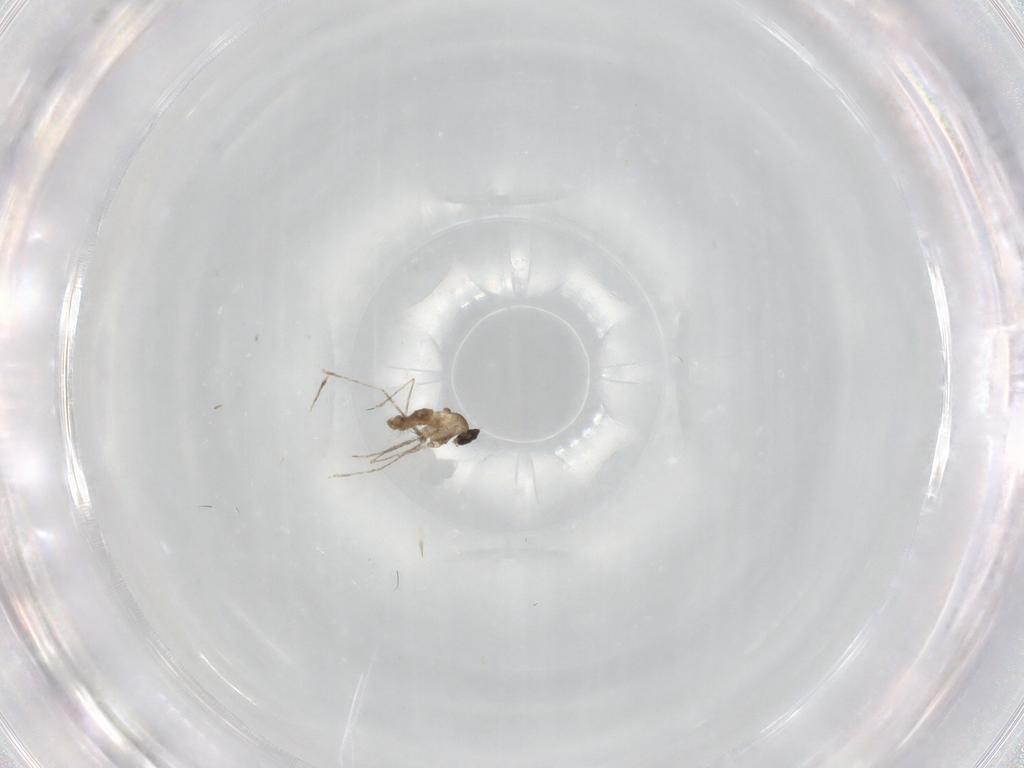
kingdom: Animalia
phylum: Arthropoda
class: Insecta
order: Diptera
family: Cecidomyiidae
